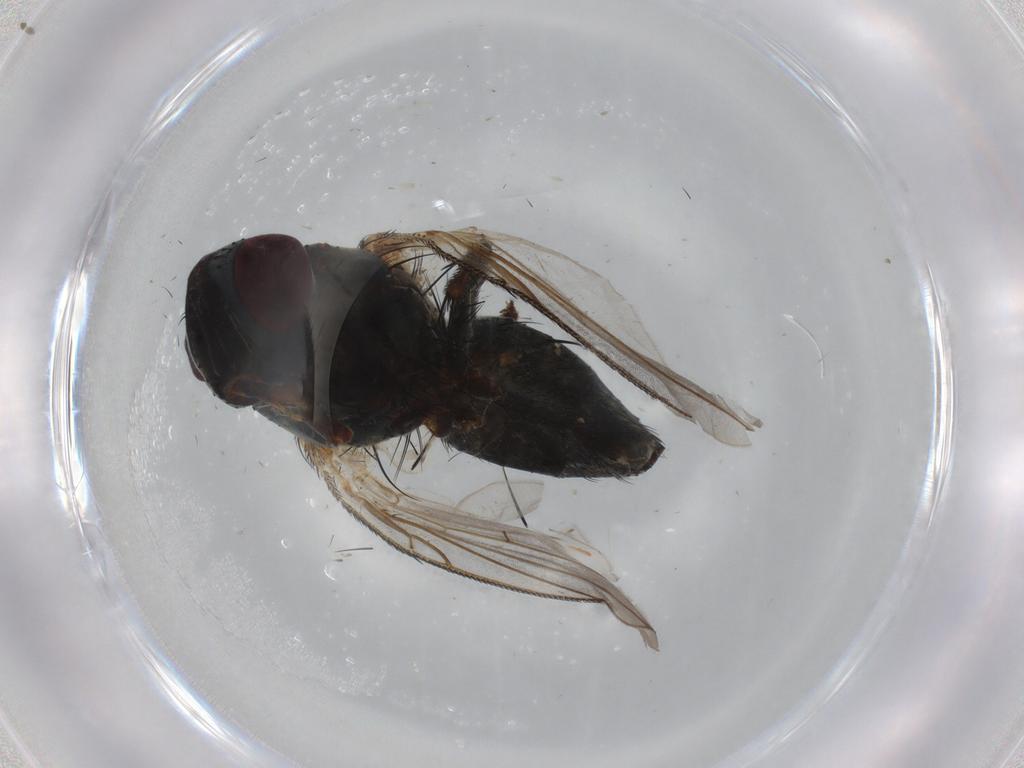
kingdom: Animalia
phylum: Arthropoda
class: Insecta
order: Diptera
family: Tachinidae
